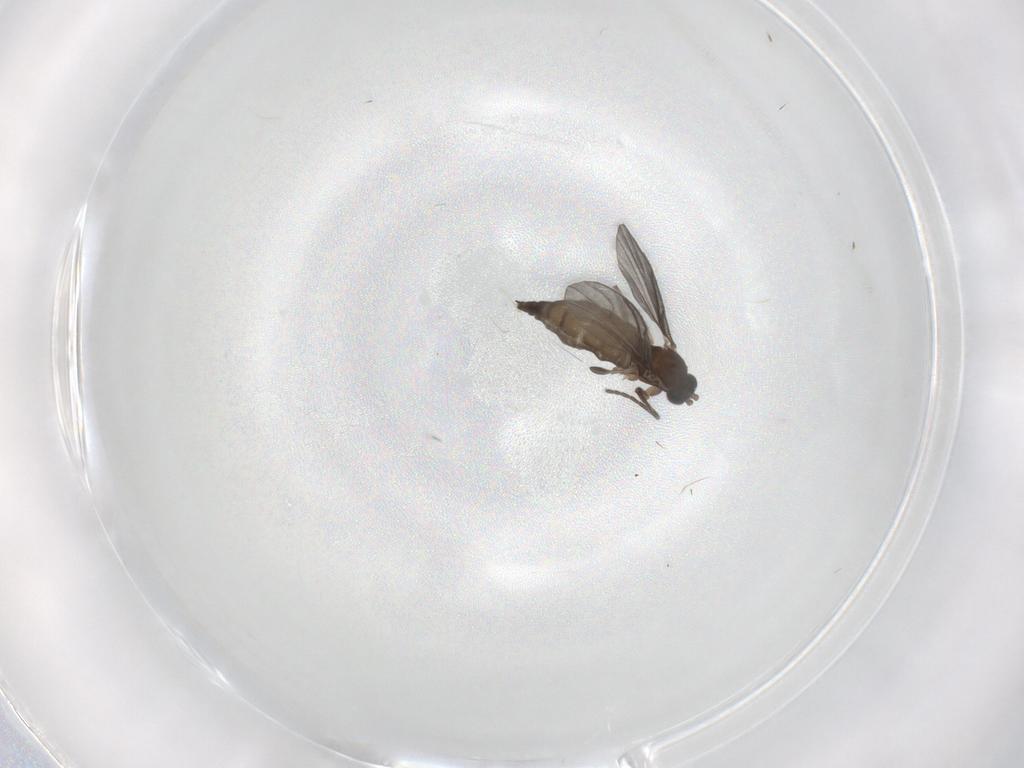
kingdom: Animalia
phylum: Arthropoda
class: Insecta
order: Diptera
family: Sciaridae
